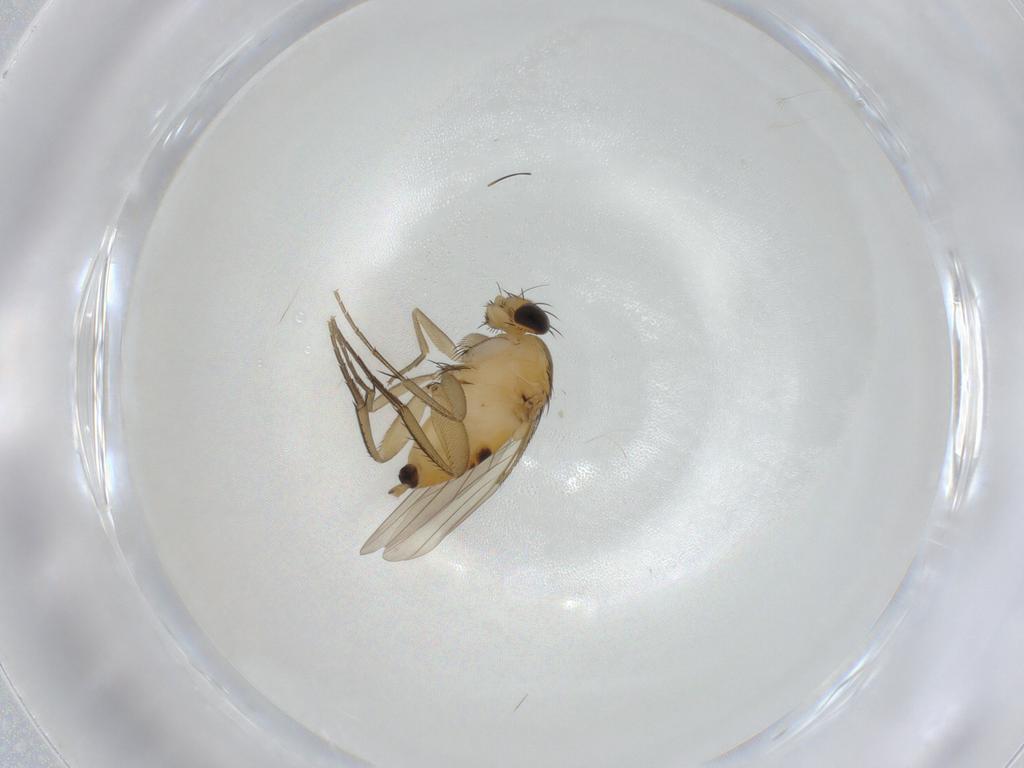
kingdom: Animalia
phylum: Arthropoda
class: Insecta
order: Diptera
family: Phoridae
